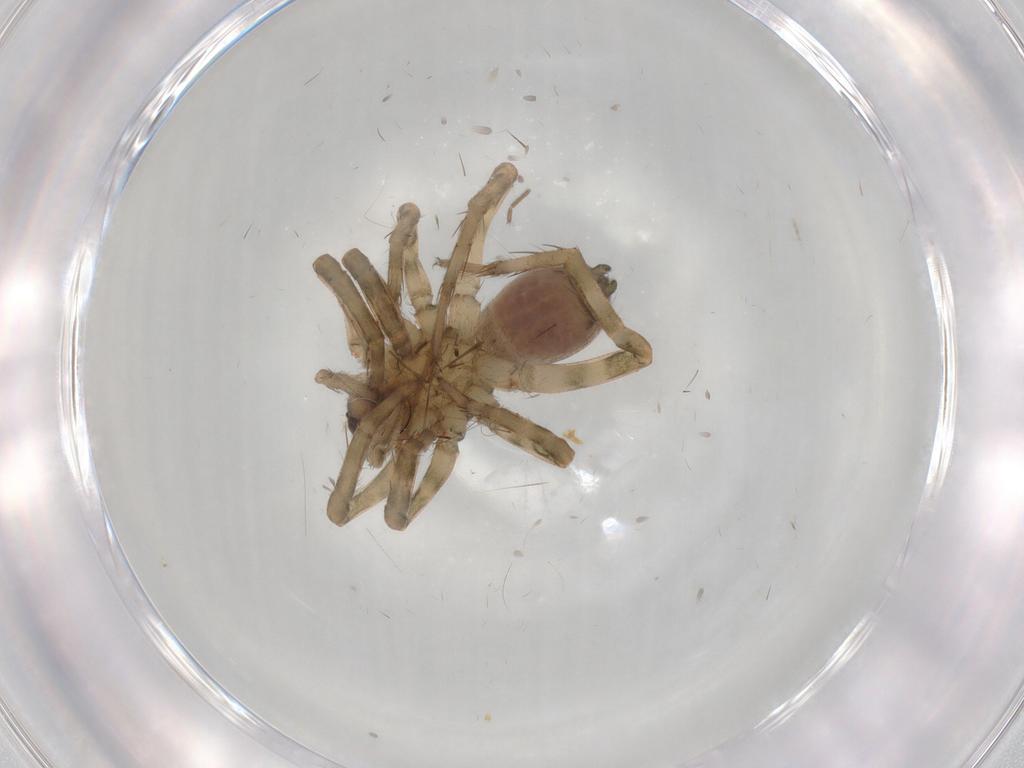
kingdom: Animalia
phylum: Arthropoda
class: Arachnida
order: Araneae
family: Lycosidae
